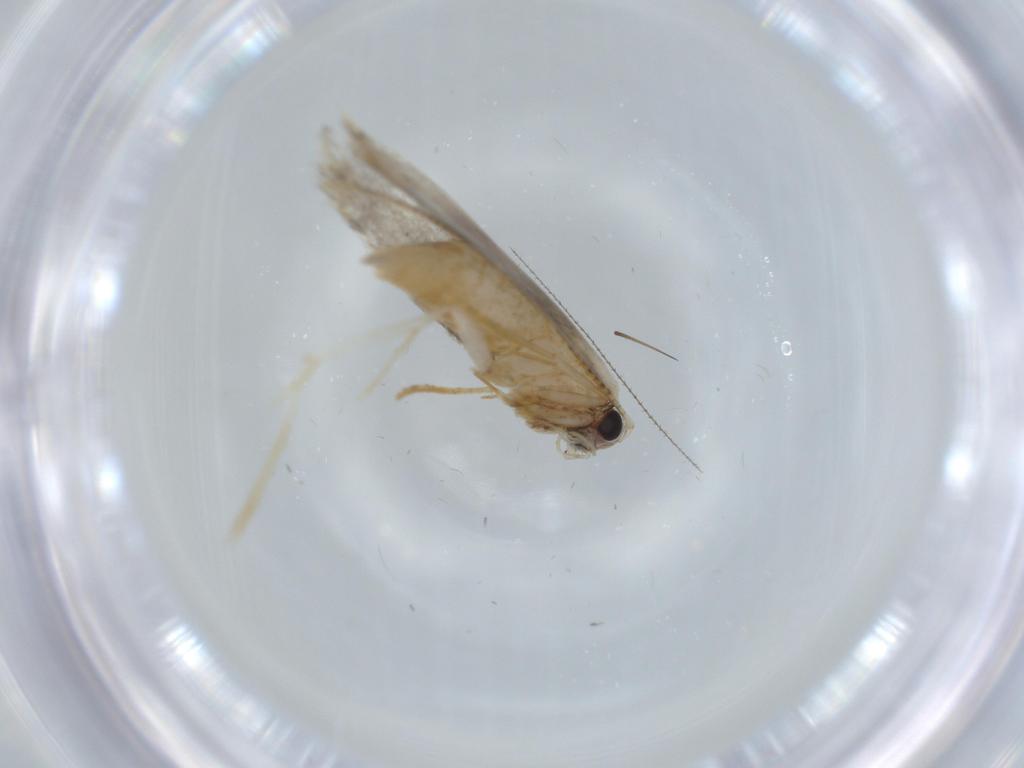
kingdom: Animalia
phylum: Arthropoda
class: Insecta
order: Lepidoptera
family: Tineidae
